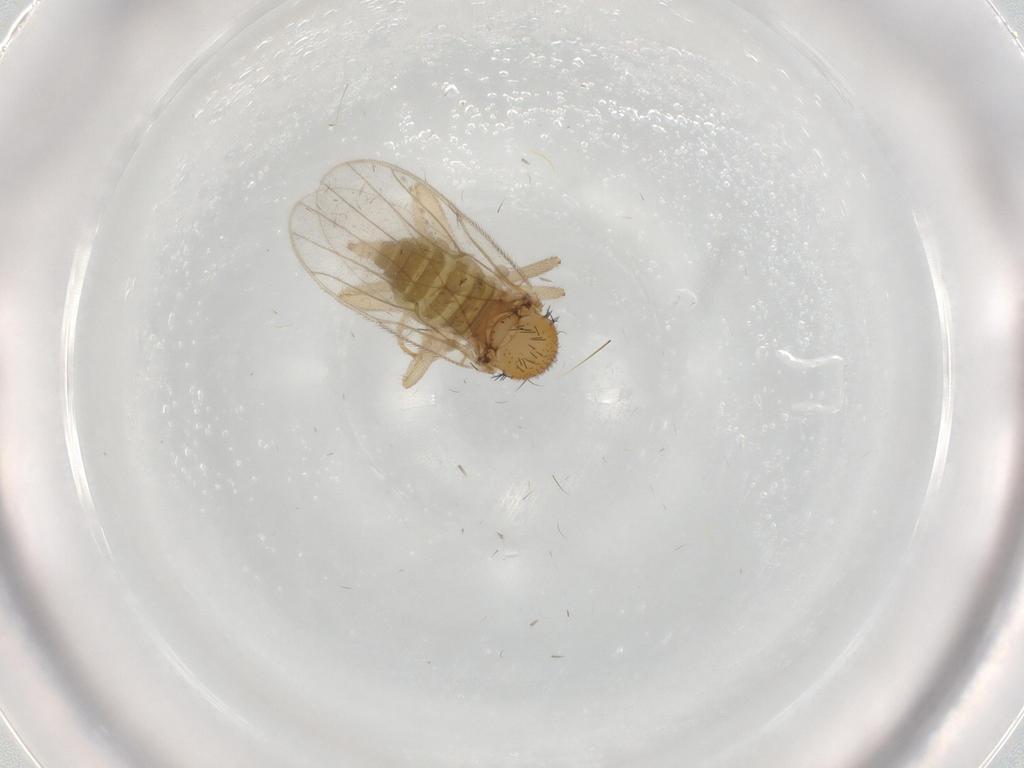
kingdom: Animalia
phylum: Arthropoda
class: Insecta
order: Diptera
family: Hybotidae
